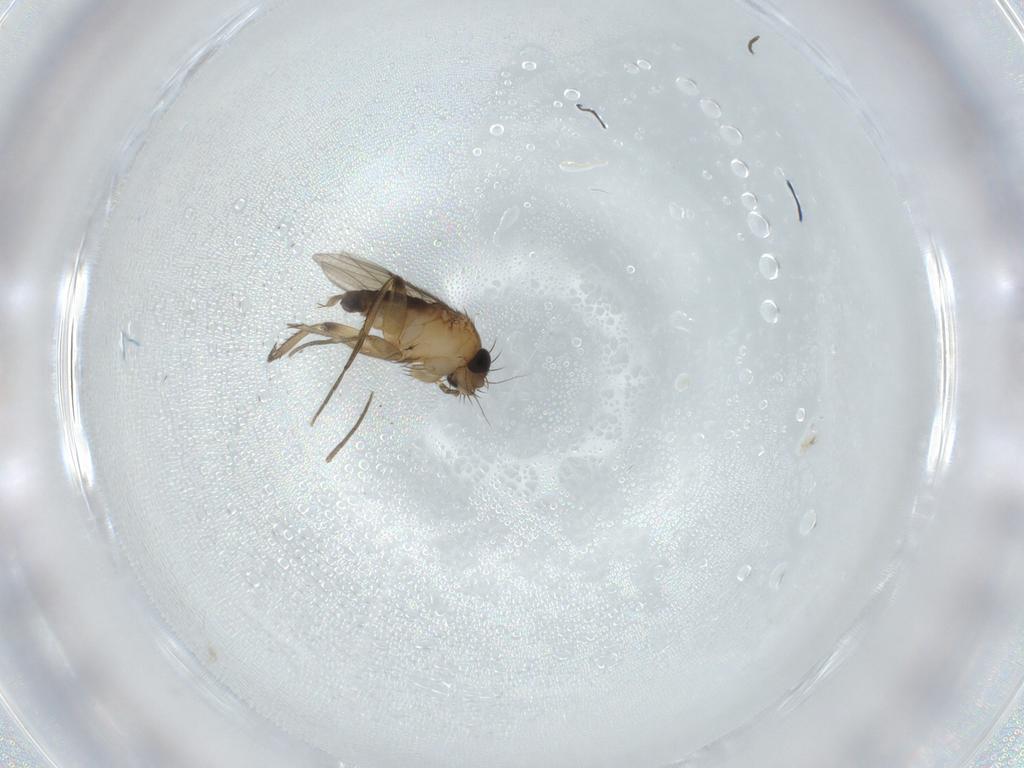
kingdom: Animalia
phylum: Arthropoda
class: Insecta
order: Diptera
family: Phoridae
